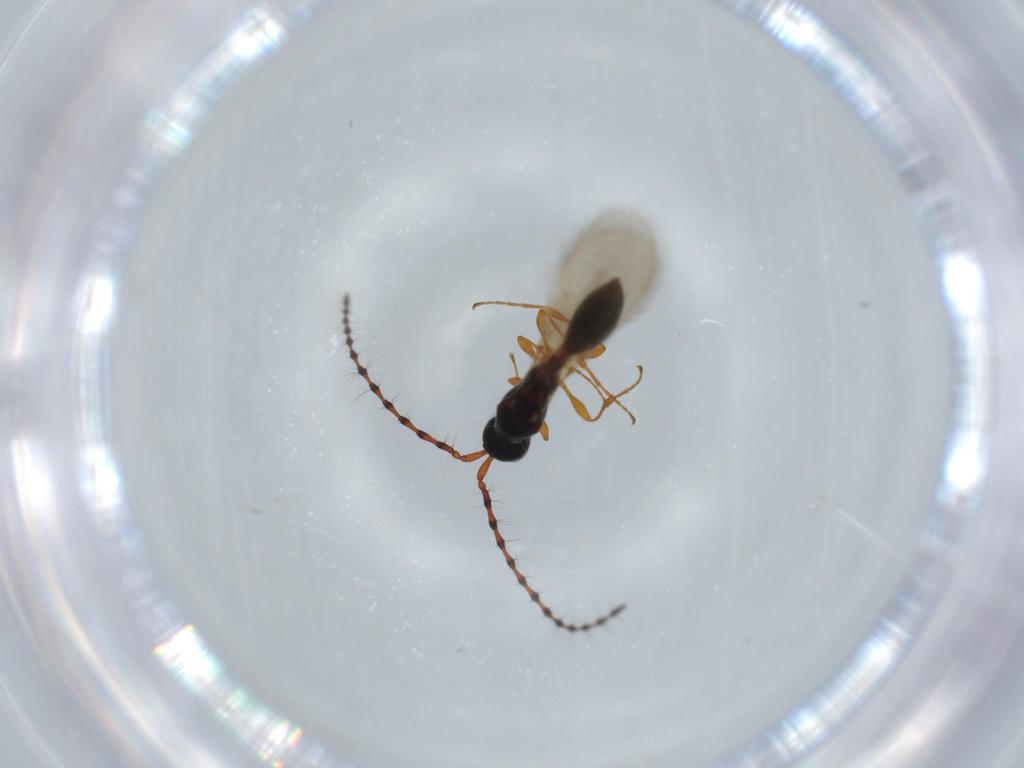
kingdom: Animalia
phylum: Arthropoda
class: Insecta
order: Hymenoptera
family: Diapriidae
